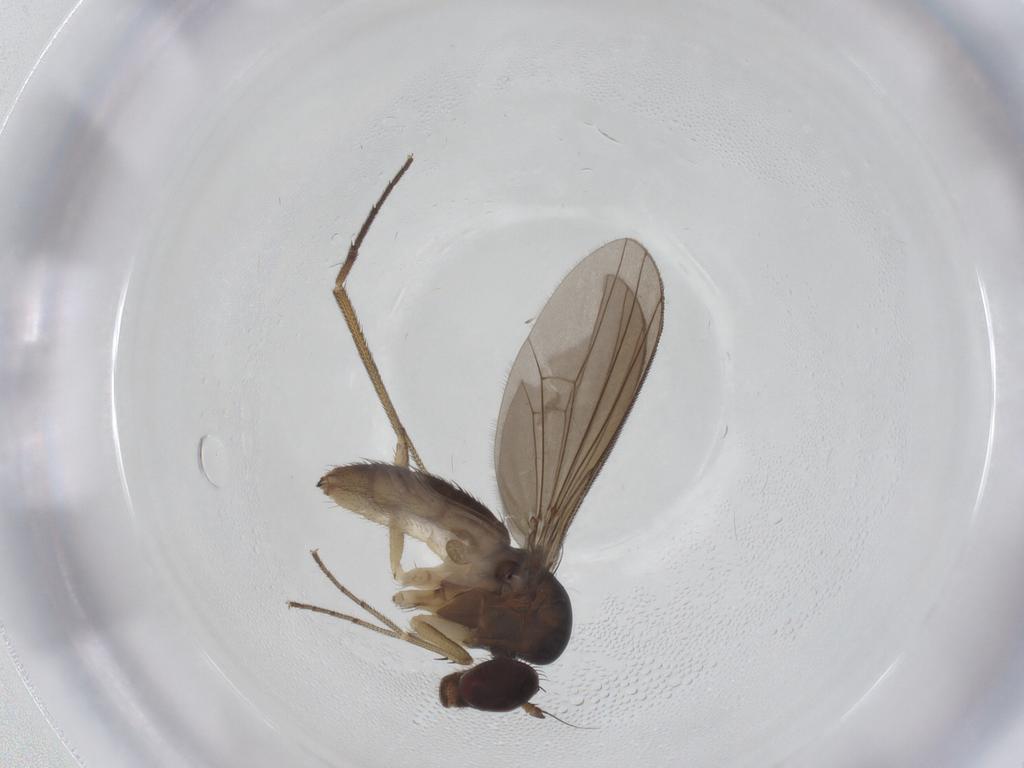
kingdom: Animalia
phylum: Arthropoda
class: Insecta
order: Diptera
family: Dolichopodidae
